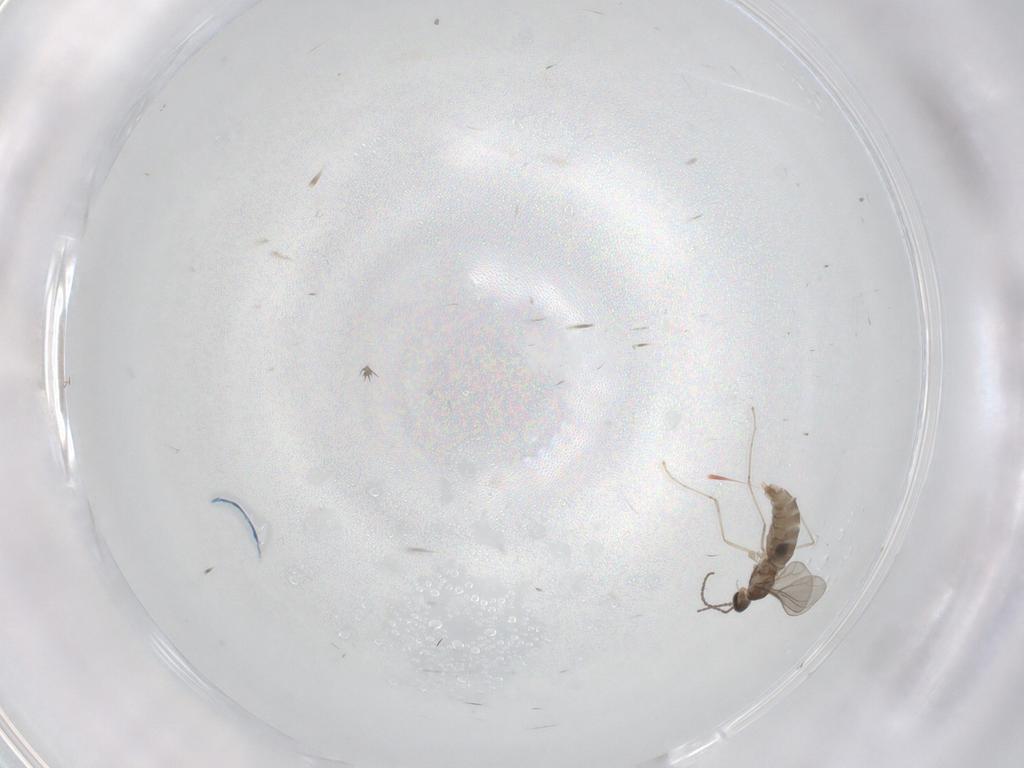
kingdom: Animalia
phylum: Arthropoda
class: Insecta
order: Diptera
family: Cecidomyiidae
